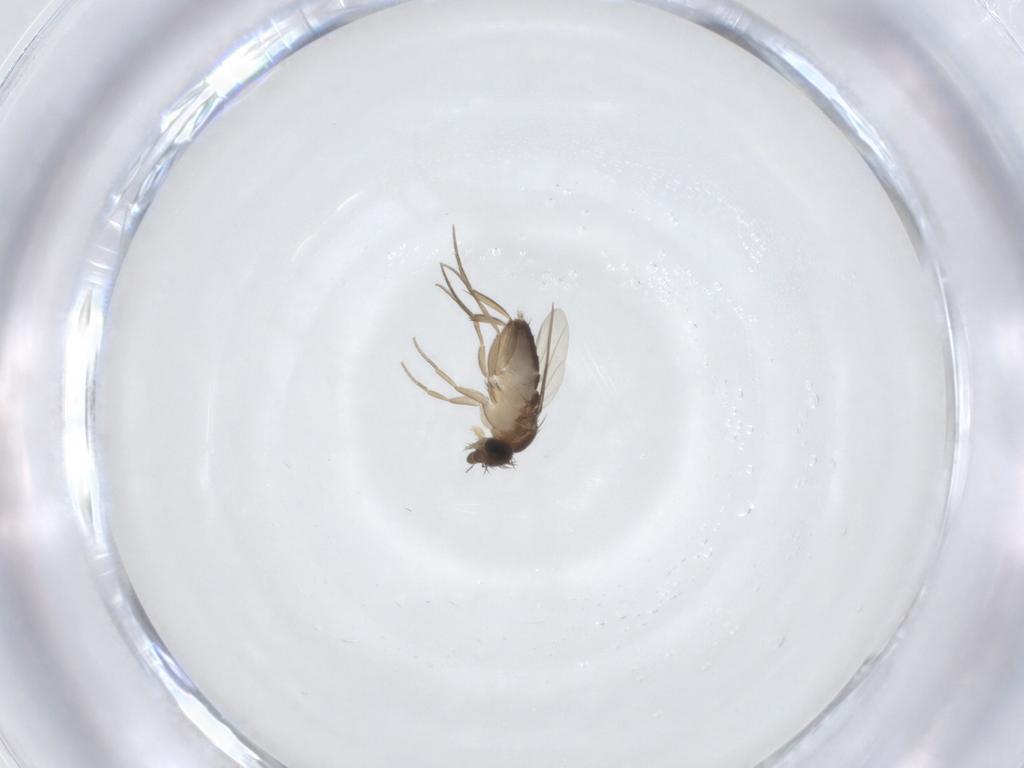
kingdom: Animalia
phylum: Arthropoda
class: Insecta
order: Diptera
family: Phoridae
